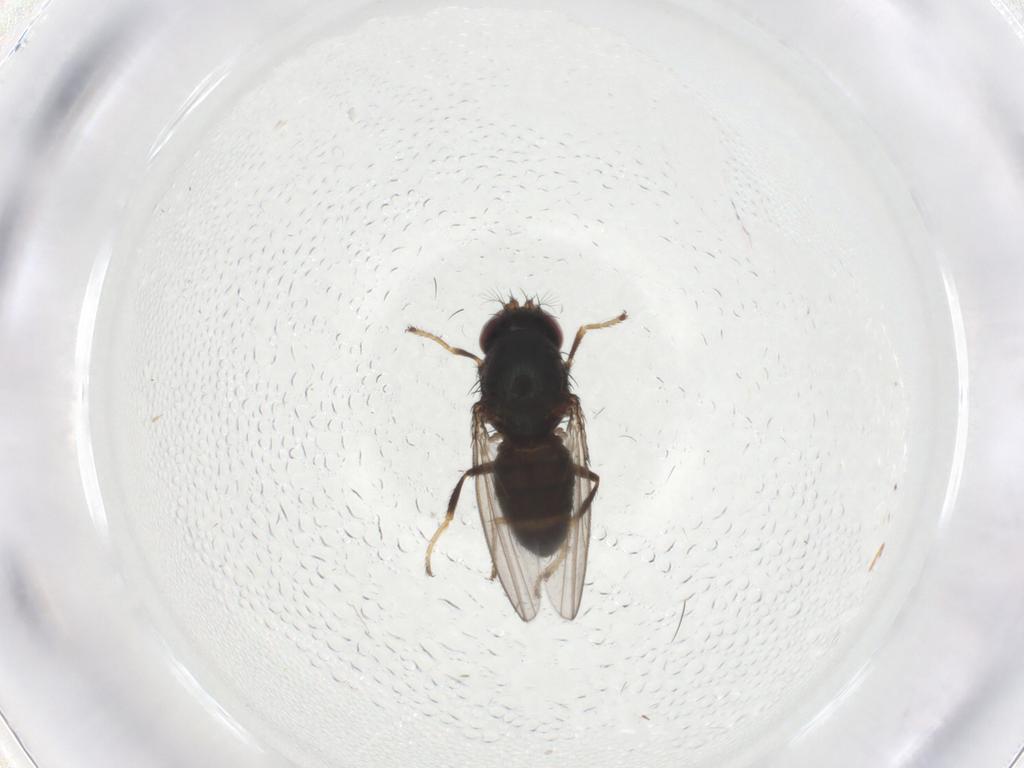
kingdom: Animalia
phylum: Arthropoda
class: Insecta
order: Diptera
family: Ephydridae
